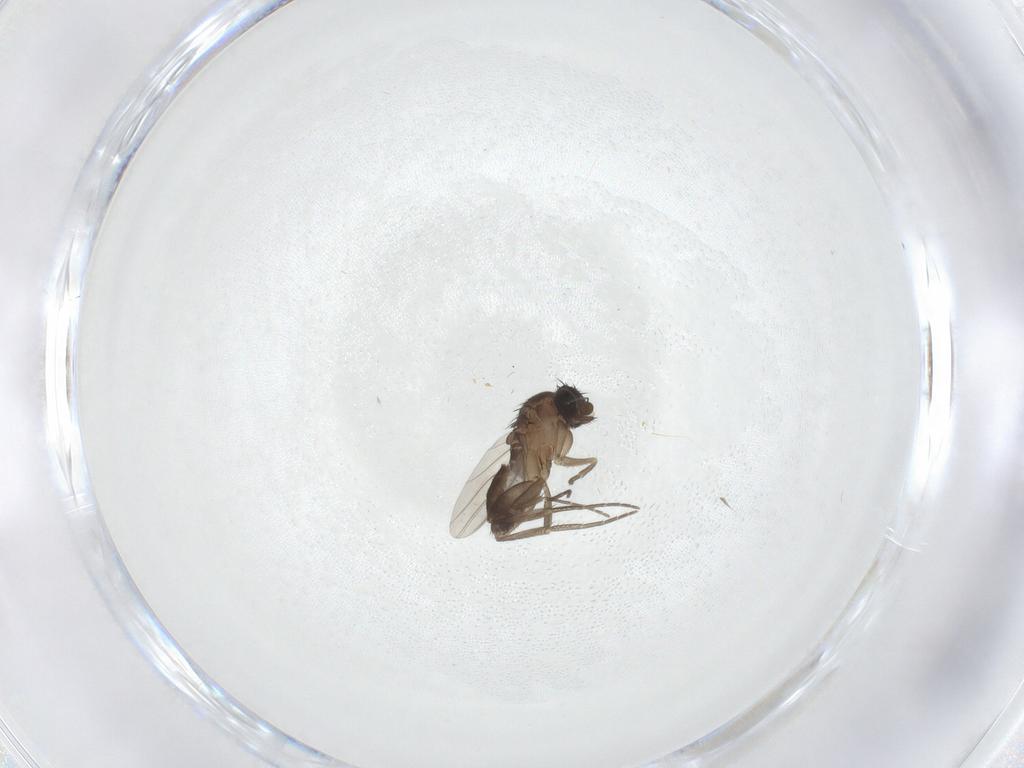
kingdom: Animalia
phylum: Arthropoda
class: Insecta
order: Diptera
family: Phoridae
